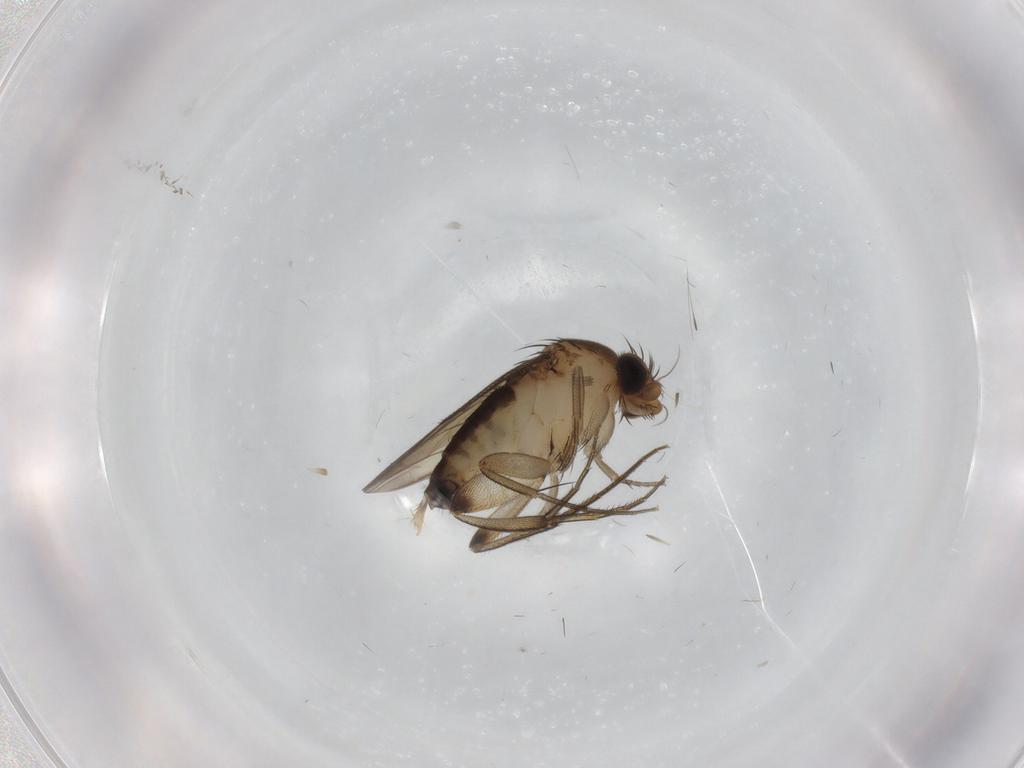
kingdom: Animalia
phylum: Arthropoda
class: Insecta
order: Diptera
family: Phoridae
